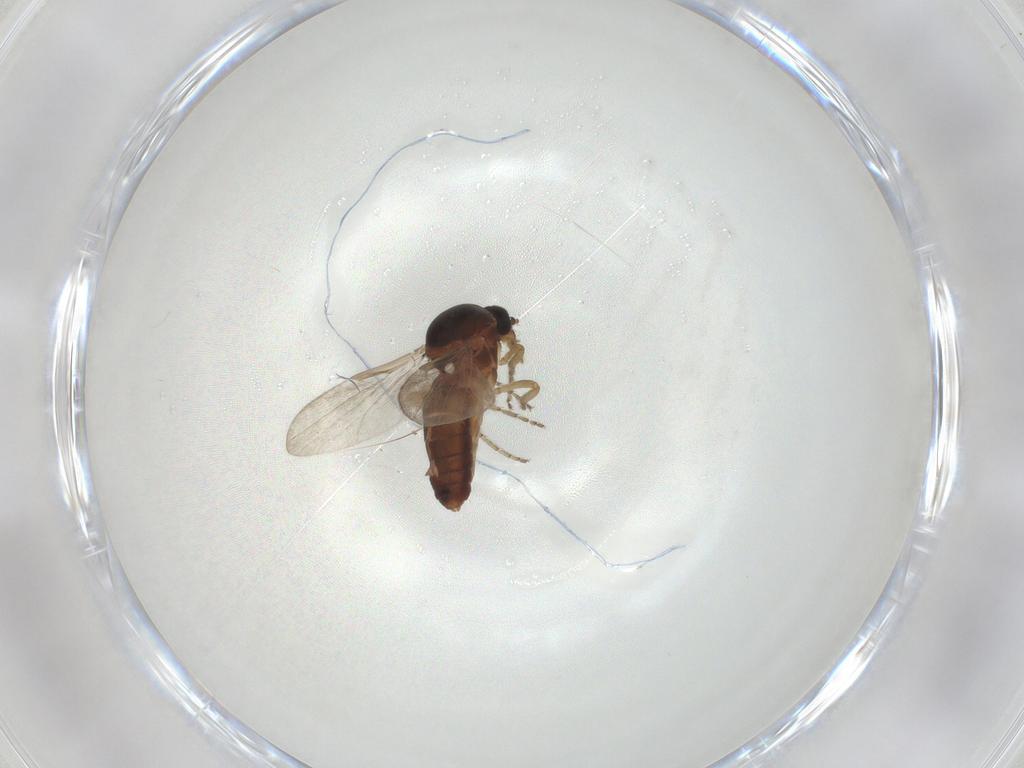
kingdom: Animalia
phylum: Arthropoda
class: Insecta
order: Diptera
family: Ceratopogonidae
